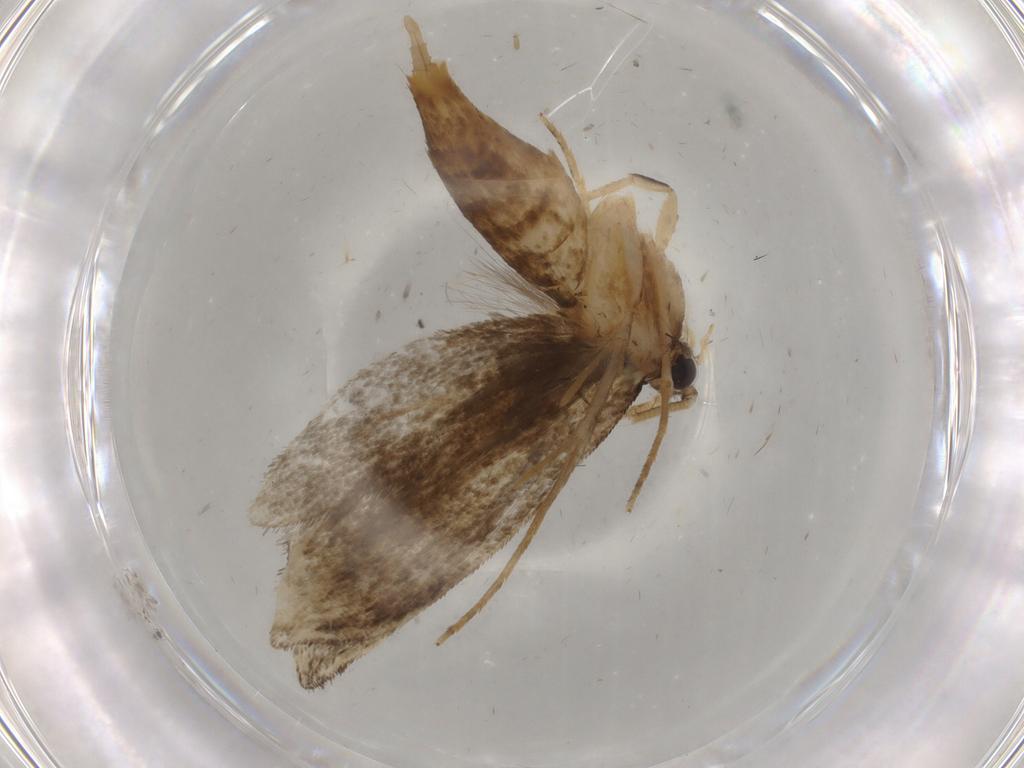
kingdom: Animalia
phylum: Arthropoda
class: Insecta
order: Lepidoptera
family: Tineidae
